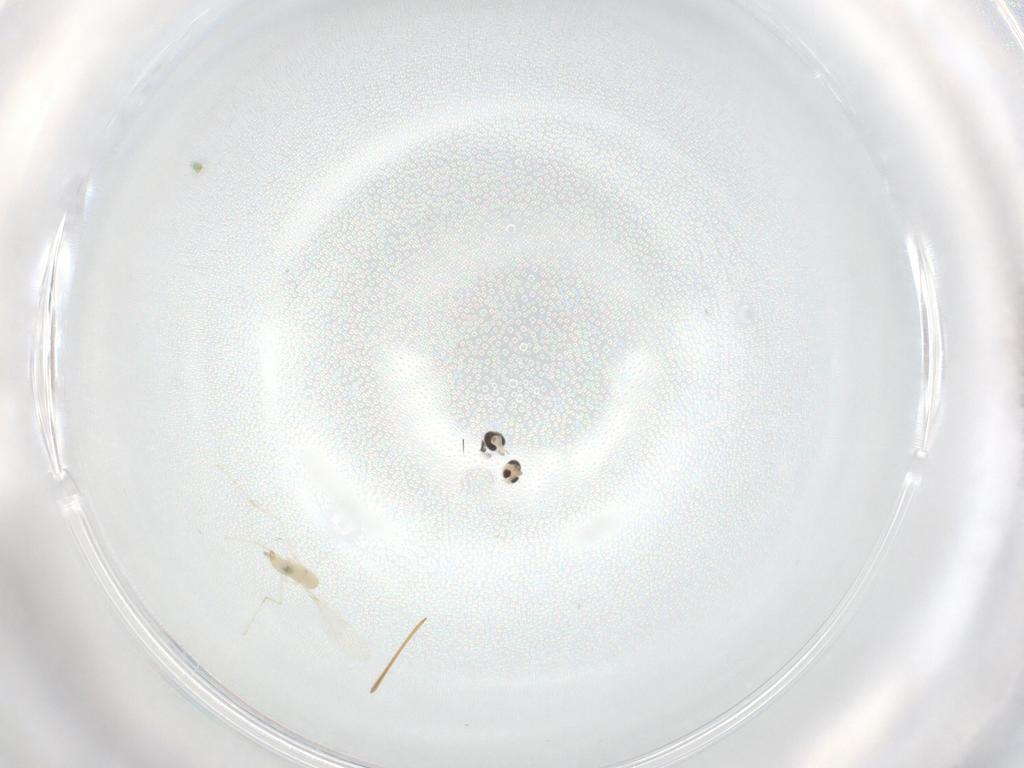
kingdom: Animalia
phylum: Arthropoda
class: Insecta
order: Diptera
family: Cecidomyiidae
